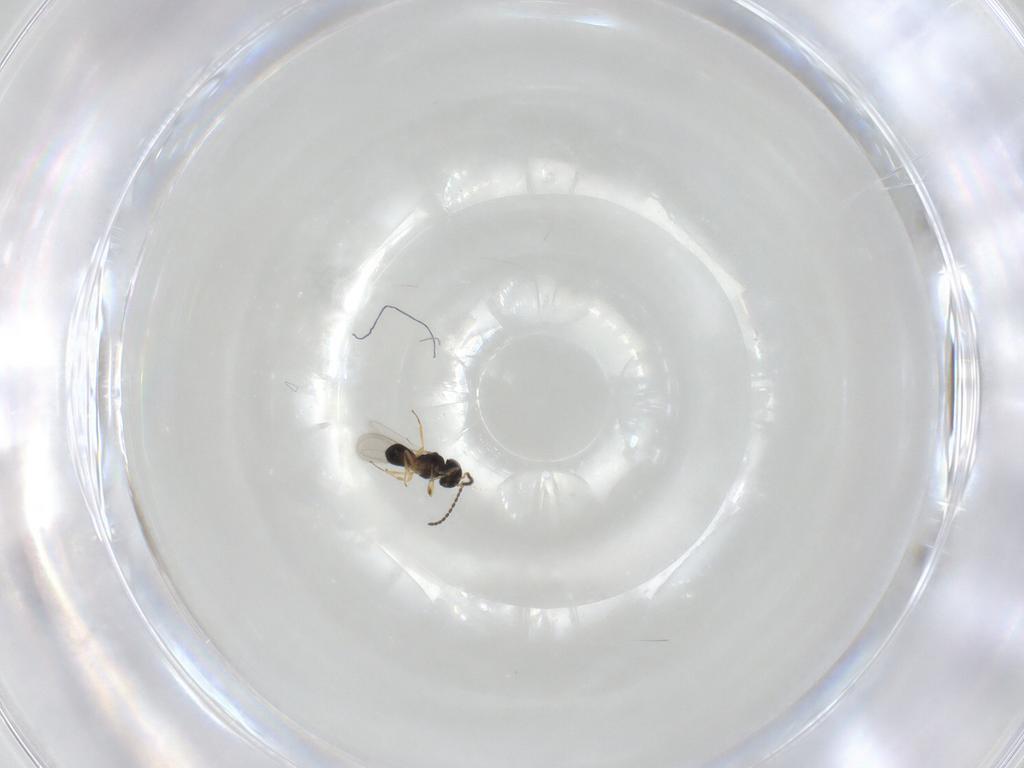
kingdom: Animalia
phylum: Arthropoda
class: Insecta
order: Hymenoptera
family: Scelionidae
